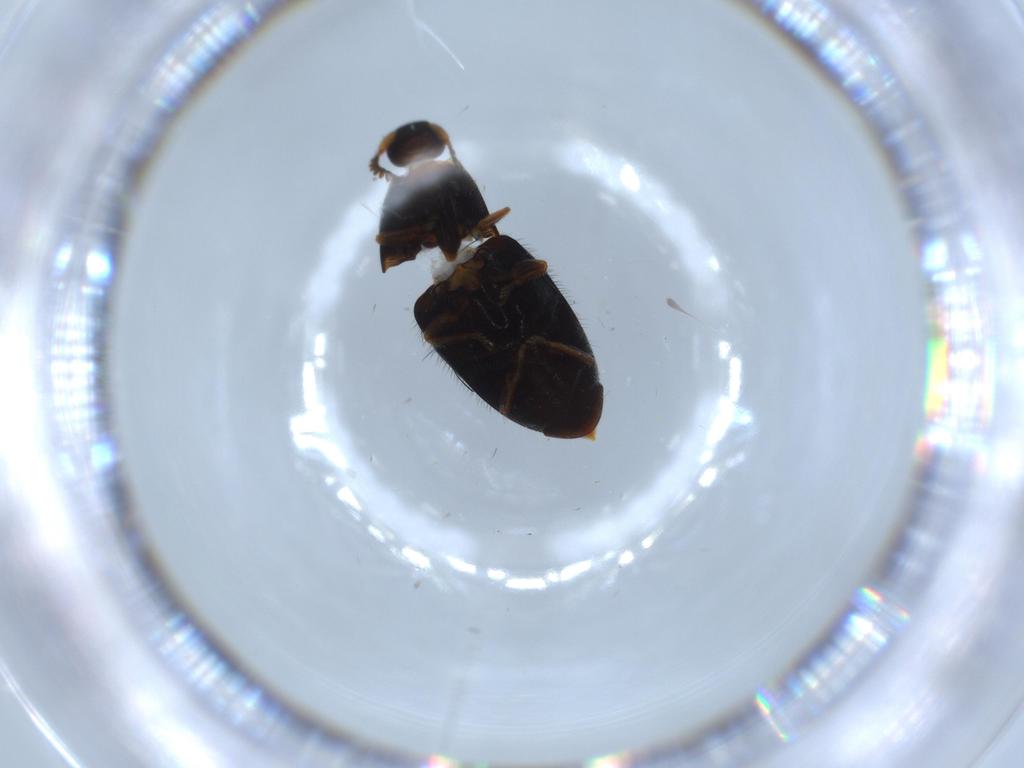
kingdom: Animalia
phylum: Arthropoda
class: Insecta
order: Coleoptera
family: Elateridae
